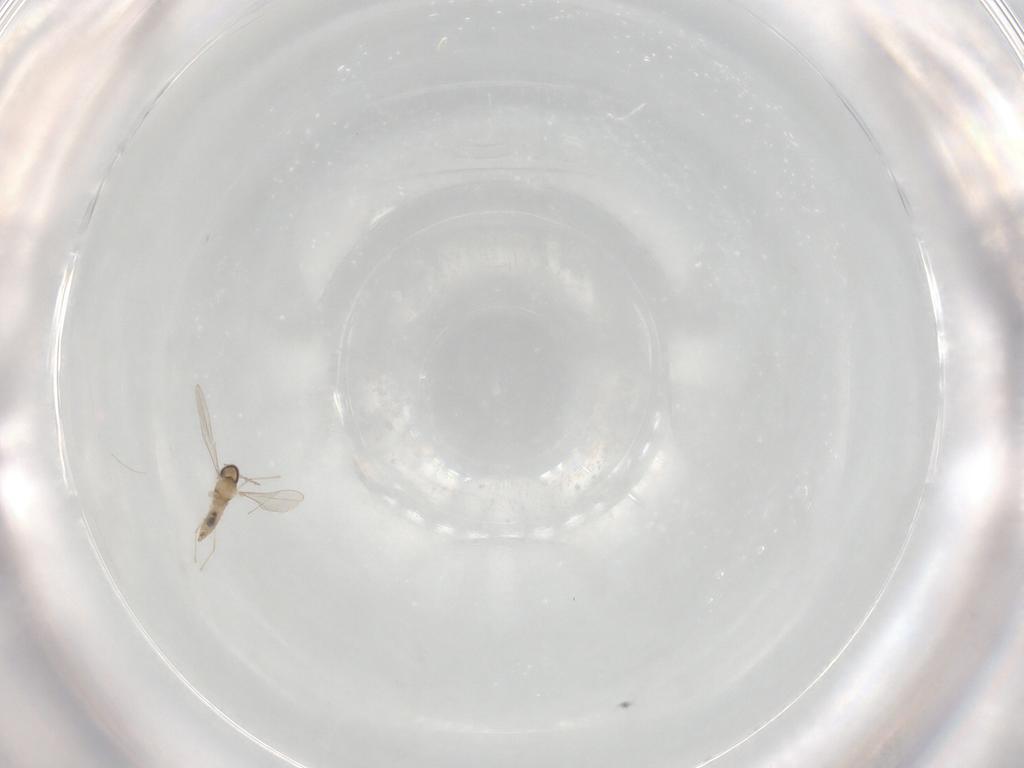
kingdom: Animalia
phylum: Arthropoda
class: Insecta
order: Diptera
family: Cecidomyiidae
